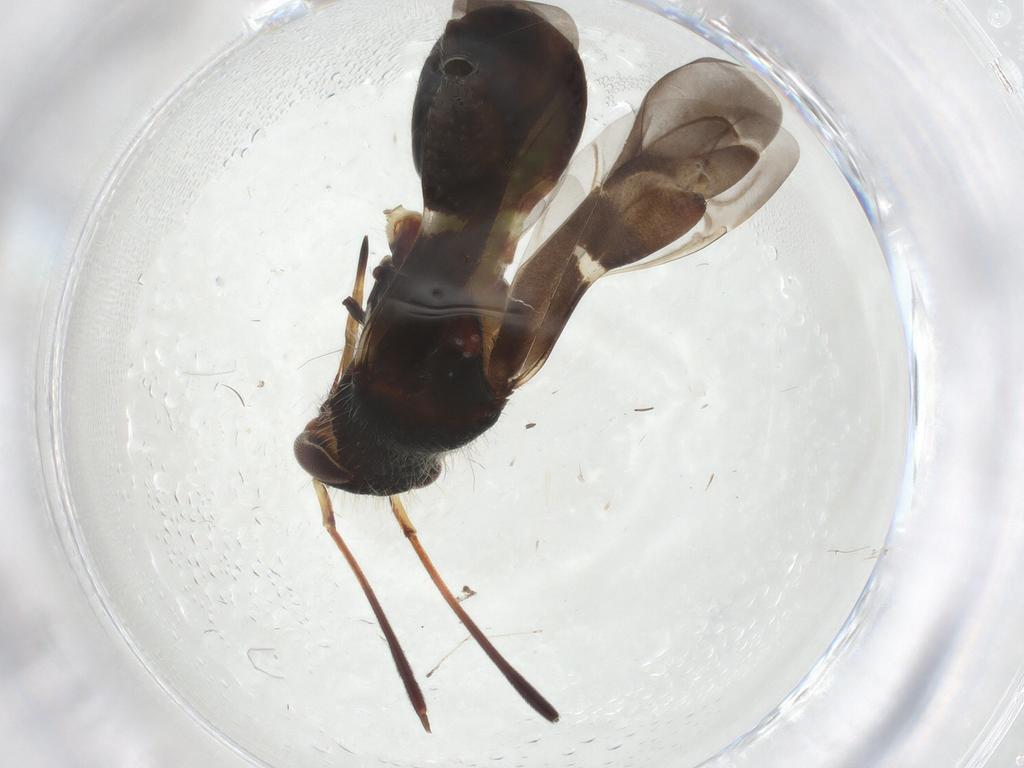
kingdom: Animalia
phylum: Arthropoda
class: Insecta
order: Hemiptera
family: Miridae
